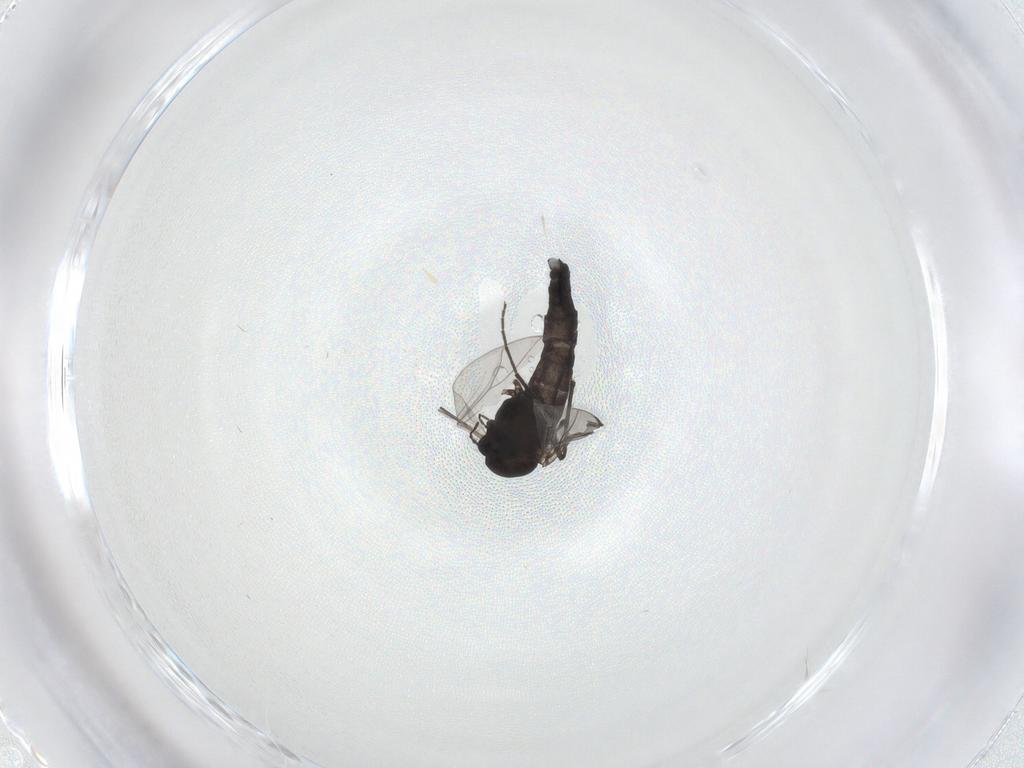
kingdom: Animalia
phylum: Arthropoda
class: Insecta
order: Diptera
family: Chironomidae
